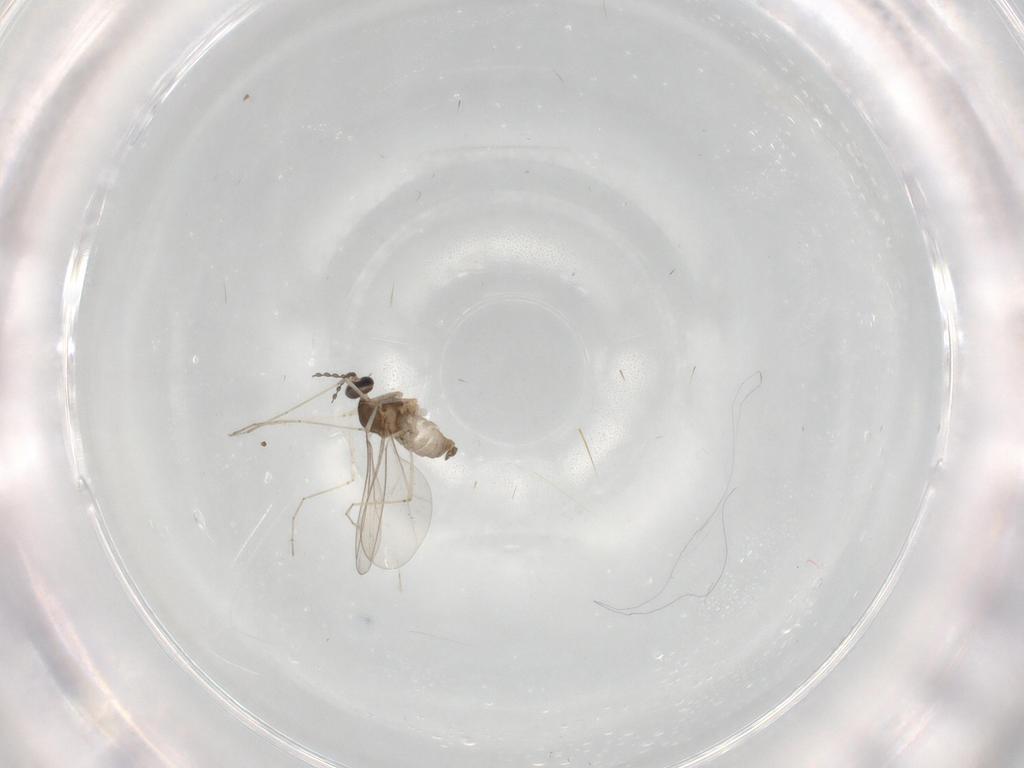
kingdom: Animalia
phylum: Arthropoda
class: Insecta
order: Diptera
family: Cecidomyiidae
